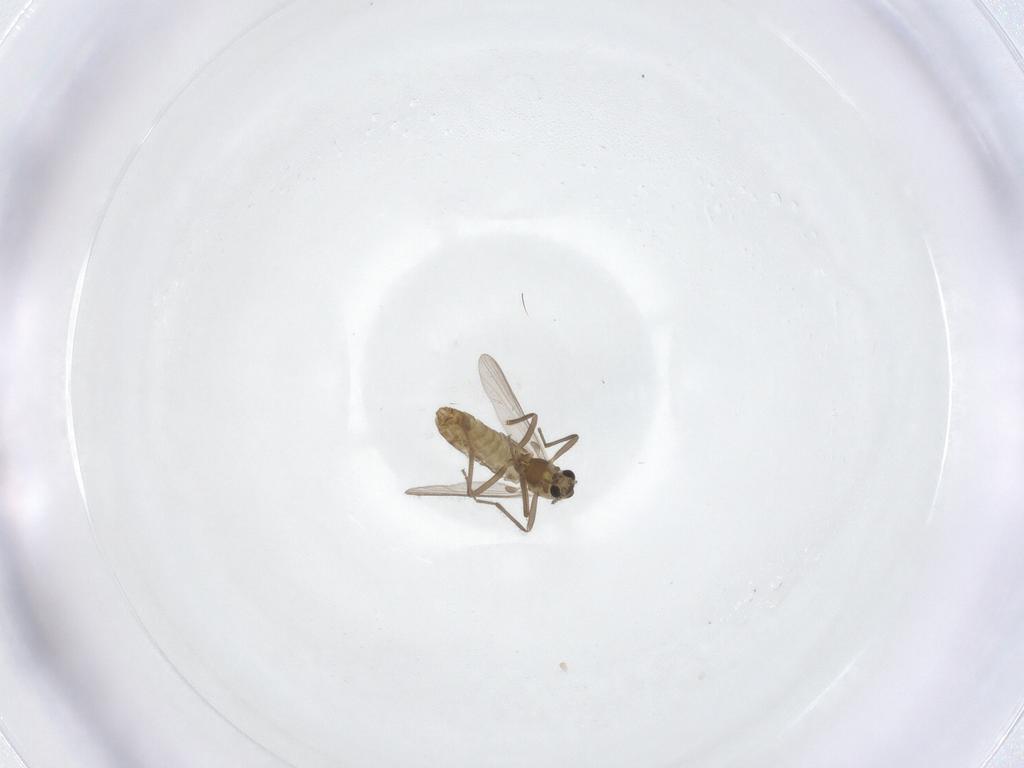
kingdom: Animalia
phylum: Arthropoda
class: Insecta
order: Diptera
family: Chironomidae
